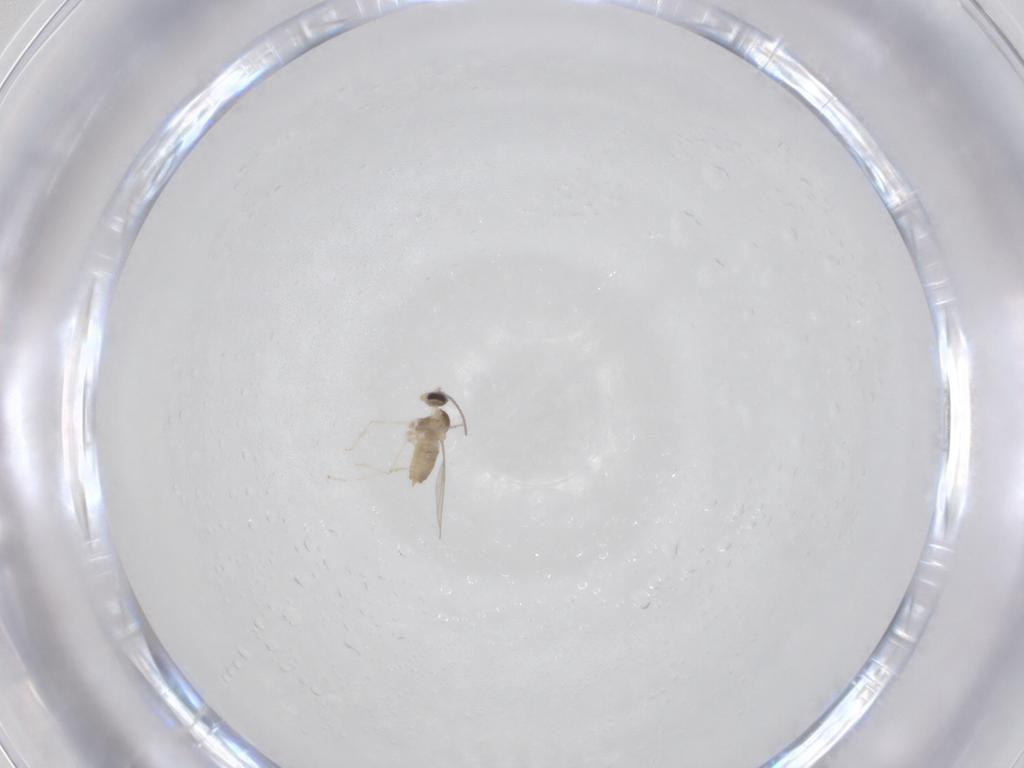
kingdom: Animalia
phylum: Arthropoda
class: Insecta
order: Diptera
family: Cecidomyiidae
